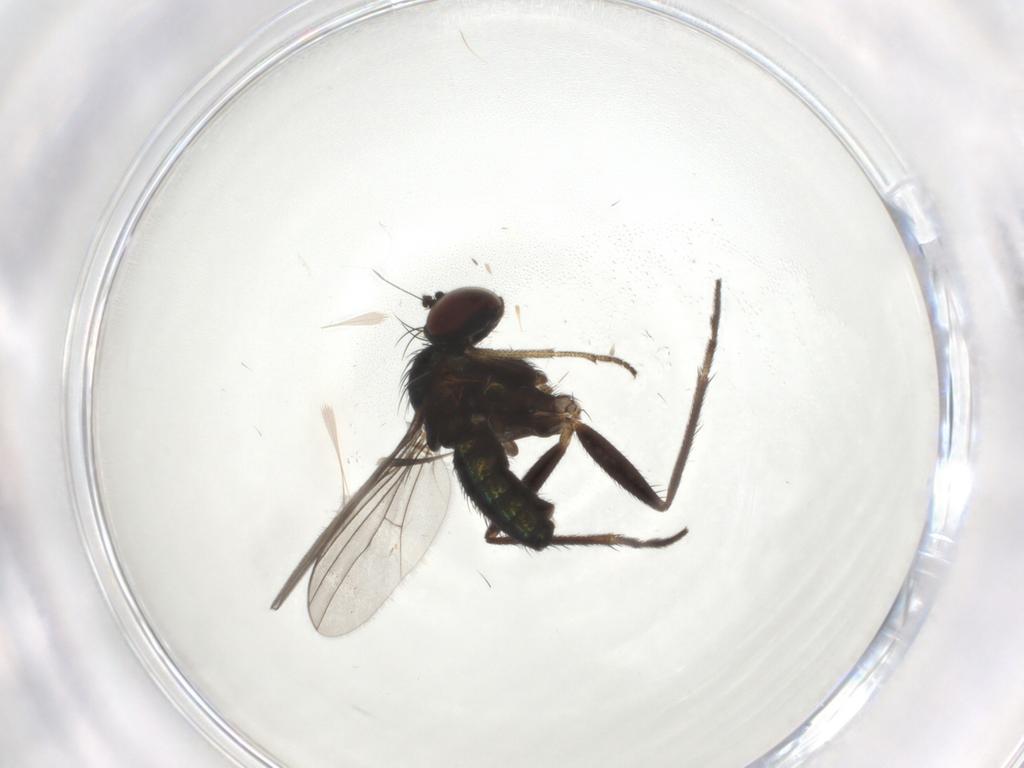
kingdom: Animalia
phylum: Arthropoda
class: Insecta
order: Diptera
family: Dolichopodidae
